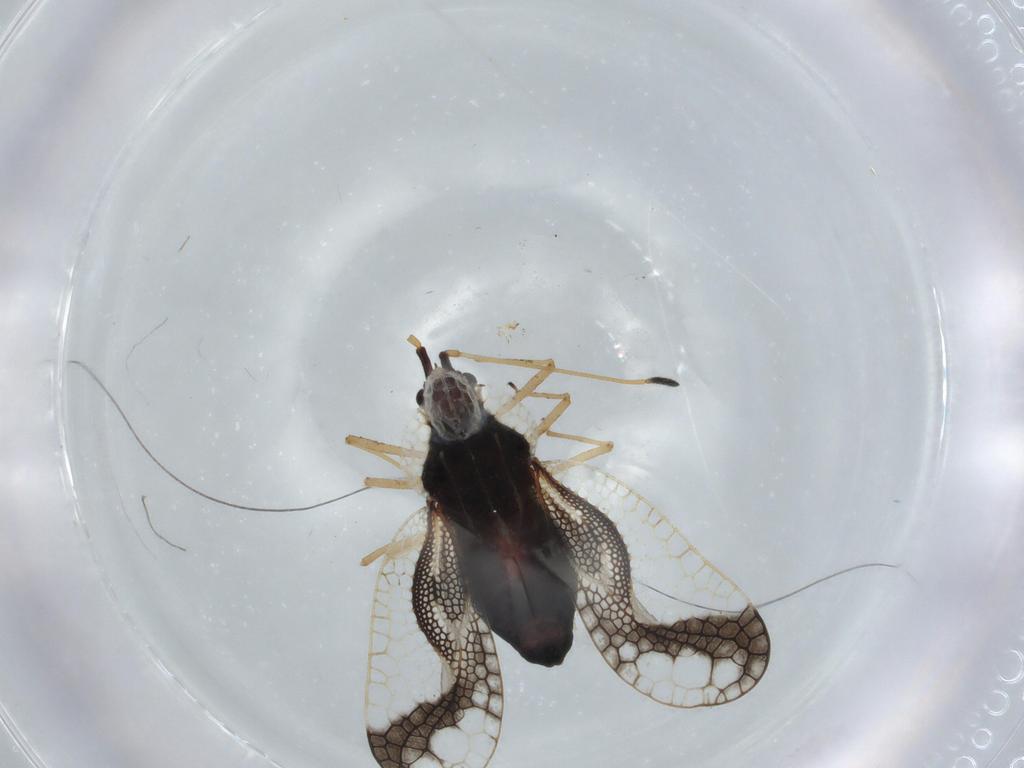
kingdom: Animalia
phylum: Arthropoda
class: Insecta
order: Hemiptera
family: Tingidae
